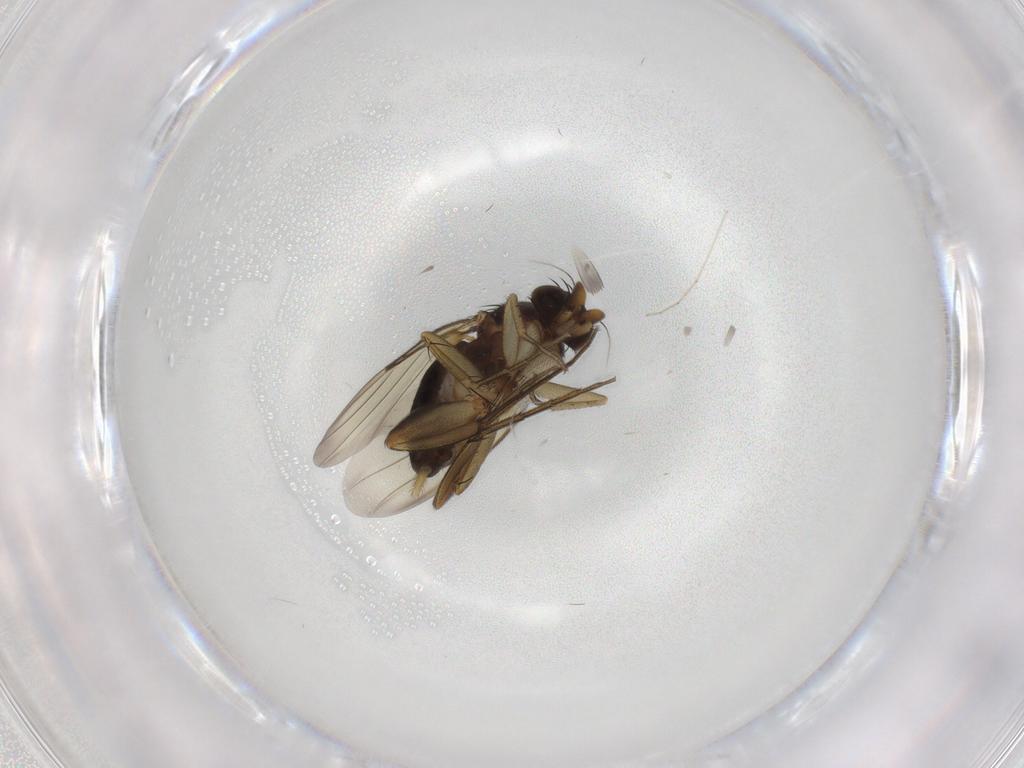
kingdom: Animalia
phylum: Arthropoda
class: Insecta
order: Diptera
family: Phoridae
